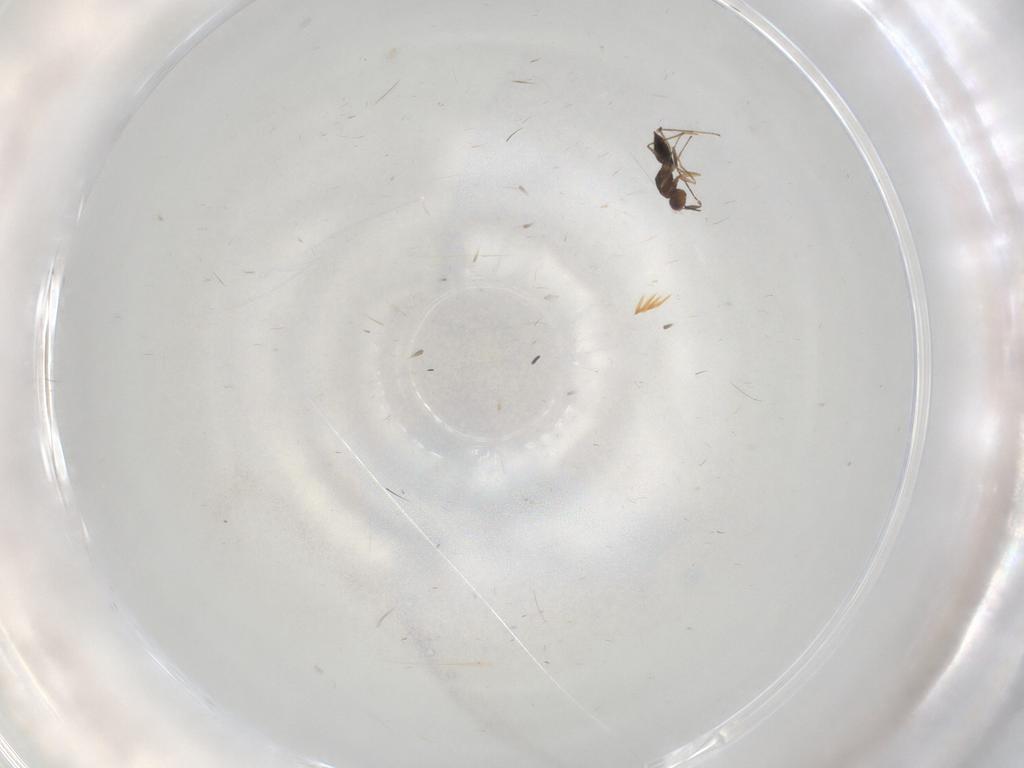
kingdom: Animalia
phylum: Arthropoda
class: Insecta
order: Hymenoptera
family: Mymaridae
